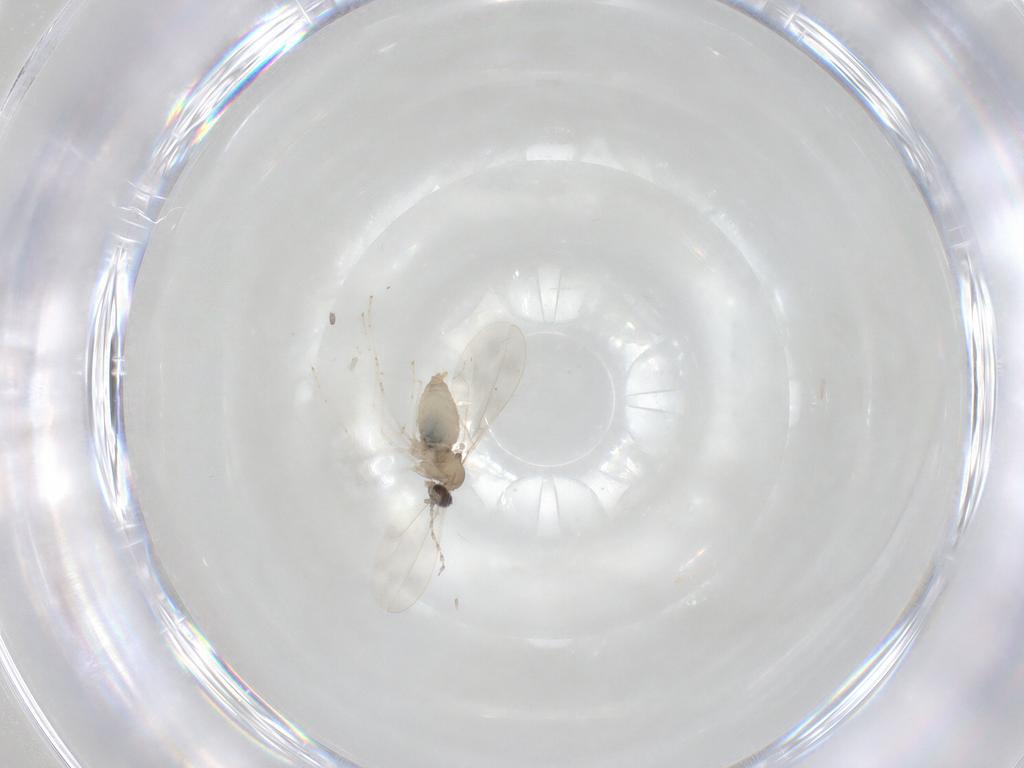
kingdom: Animalia
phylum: Arthropoda
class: Insecta
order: Diptera
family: Cecidomyiidae
